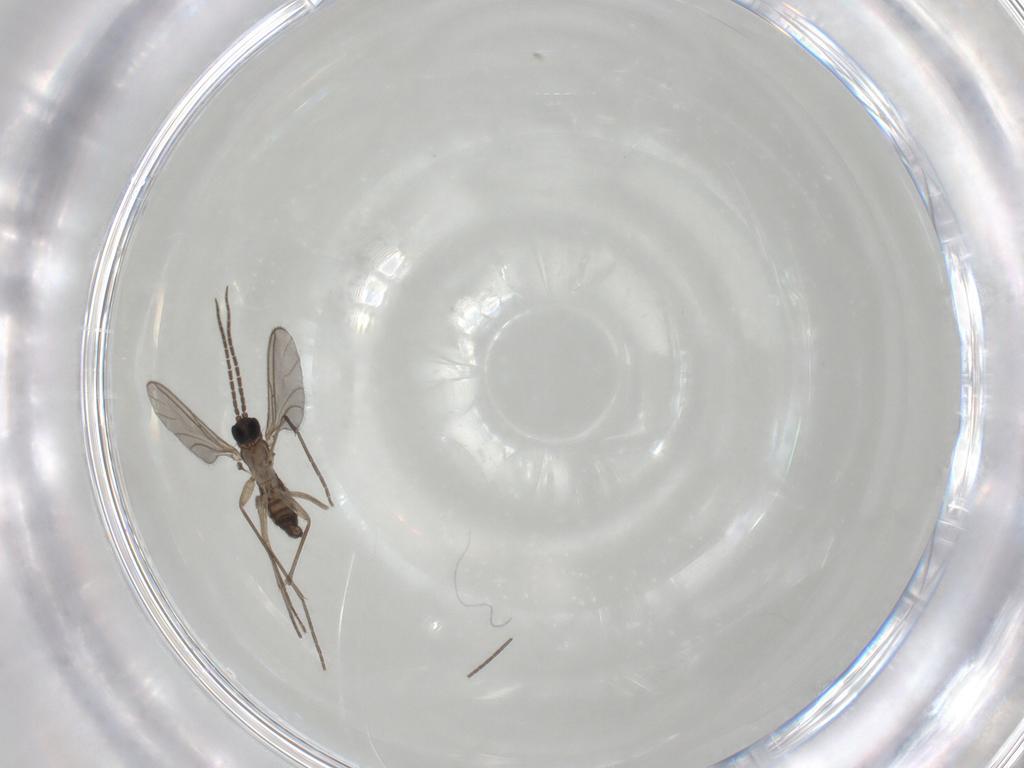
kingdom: Animalia
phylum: Arthropoda
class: Insecta
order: Diptera
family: Sciaridae
